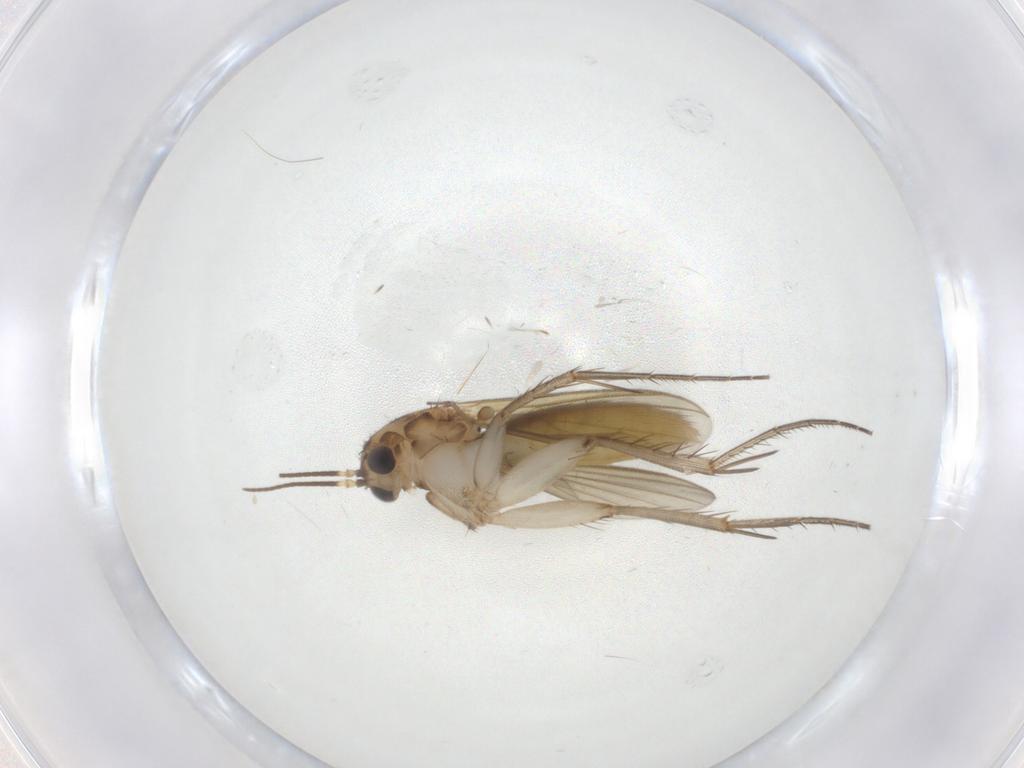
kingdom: Animalia
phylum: Arthropoda
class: Insecta
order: Diptera
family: Mycetophilidae
